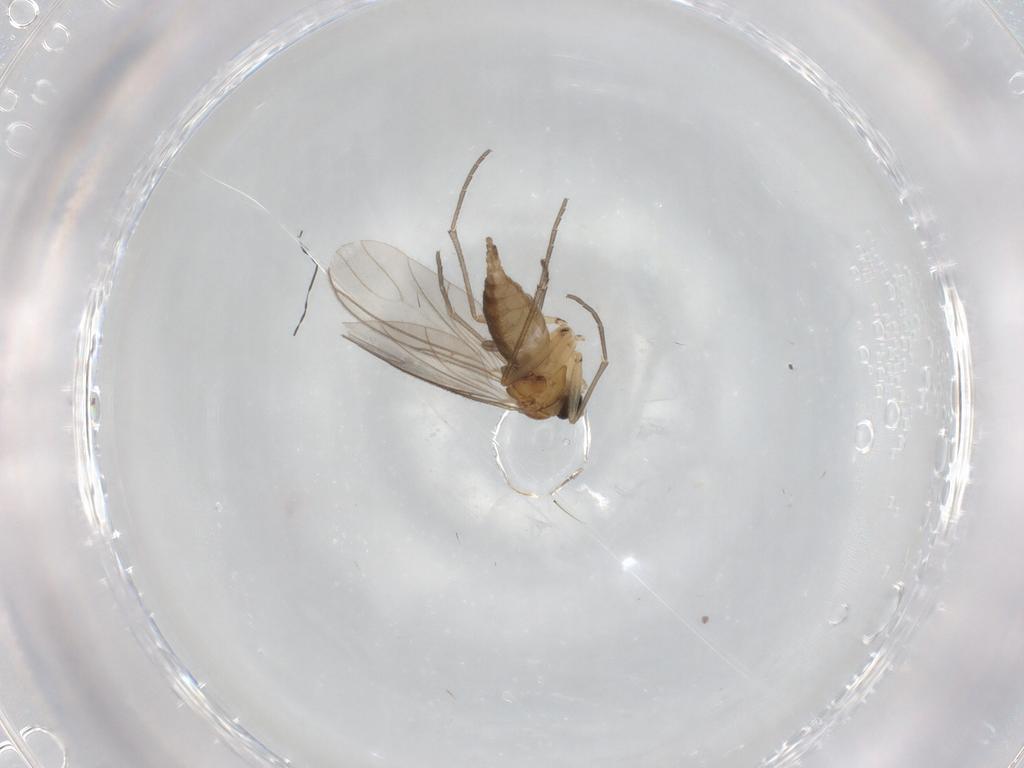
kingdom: Animalia
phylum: Arthropoda
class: Insecta
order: Diptera
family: Sciaridae
